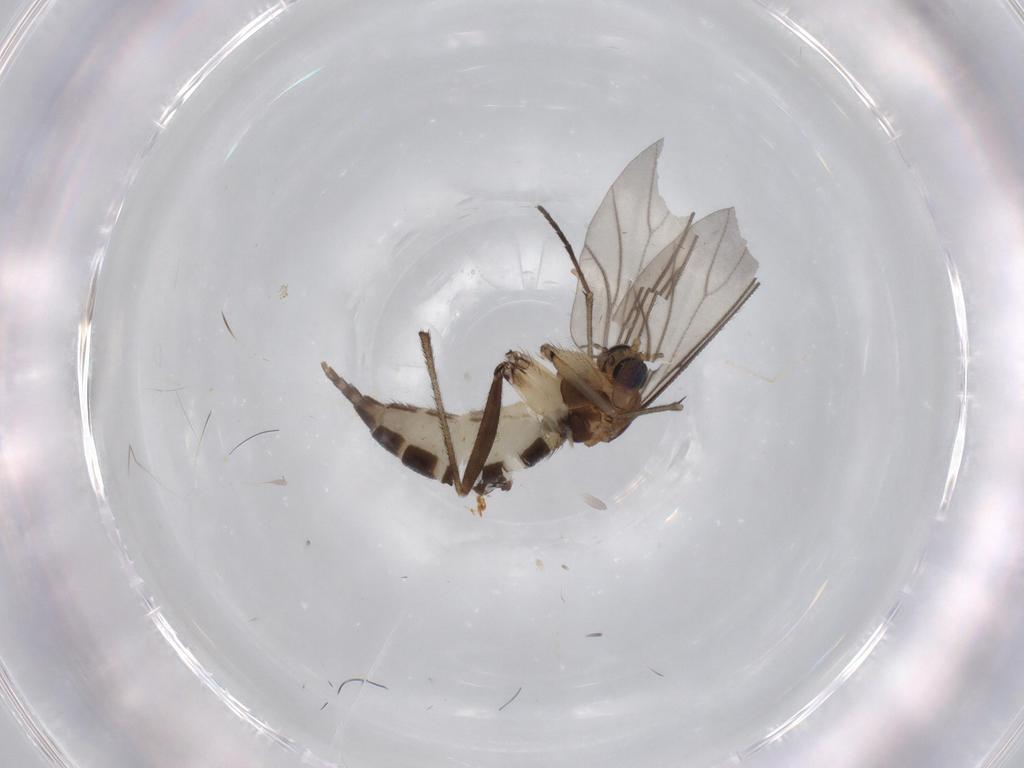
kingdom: Animalia
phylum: Arthropoda
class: Insecta
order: Diptera
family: Sciaridae
